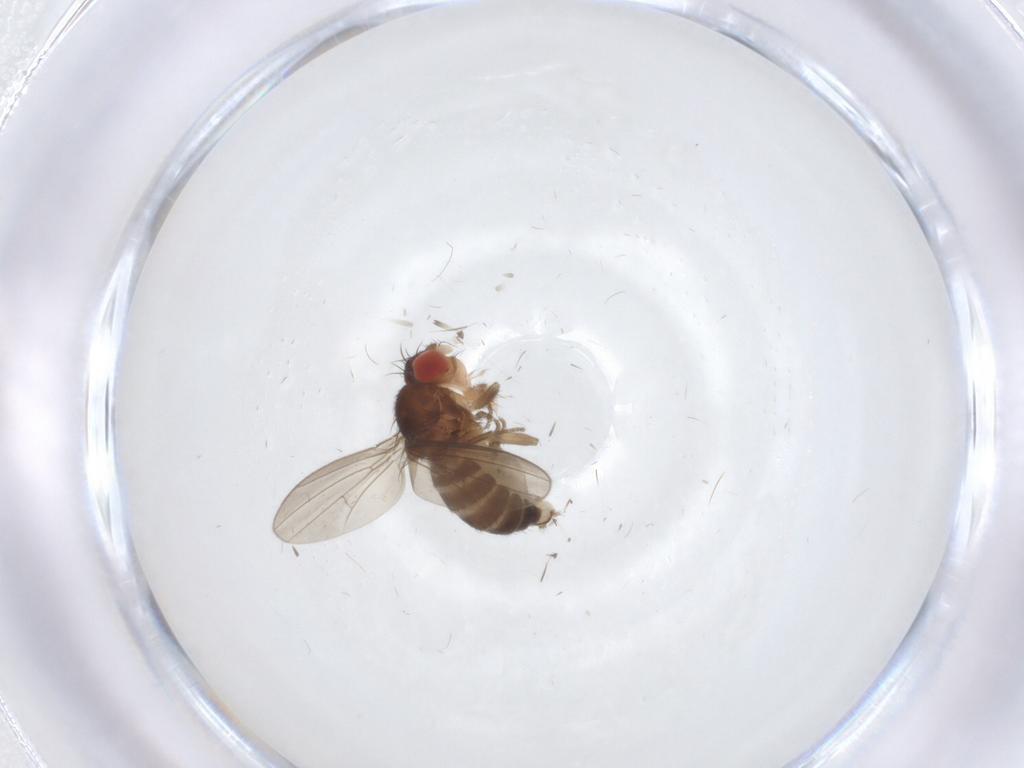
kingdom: Animalia
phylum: Arthropoda
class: Insecta
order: Diptera
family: Drosophilidae
